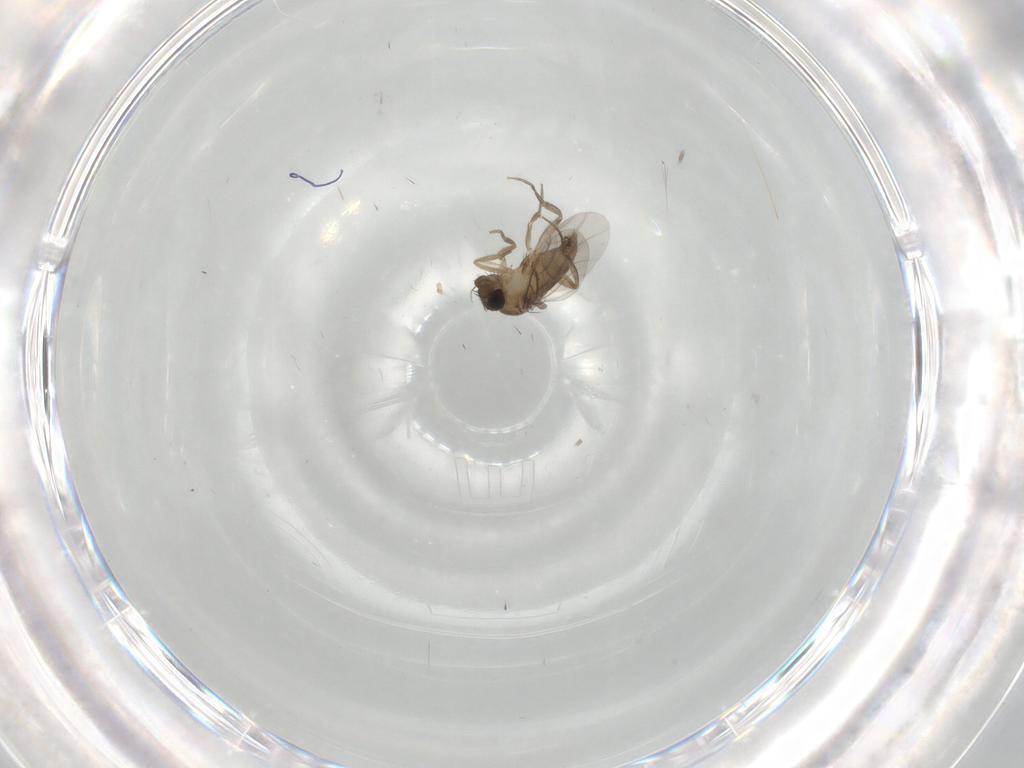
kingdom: Animalia
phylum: Arthropoda
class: Insecta
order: Diptera
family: Phoridae
